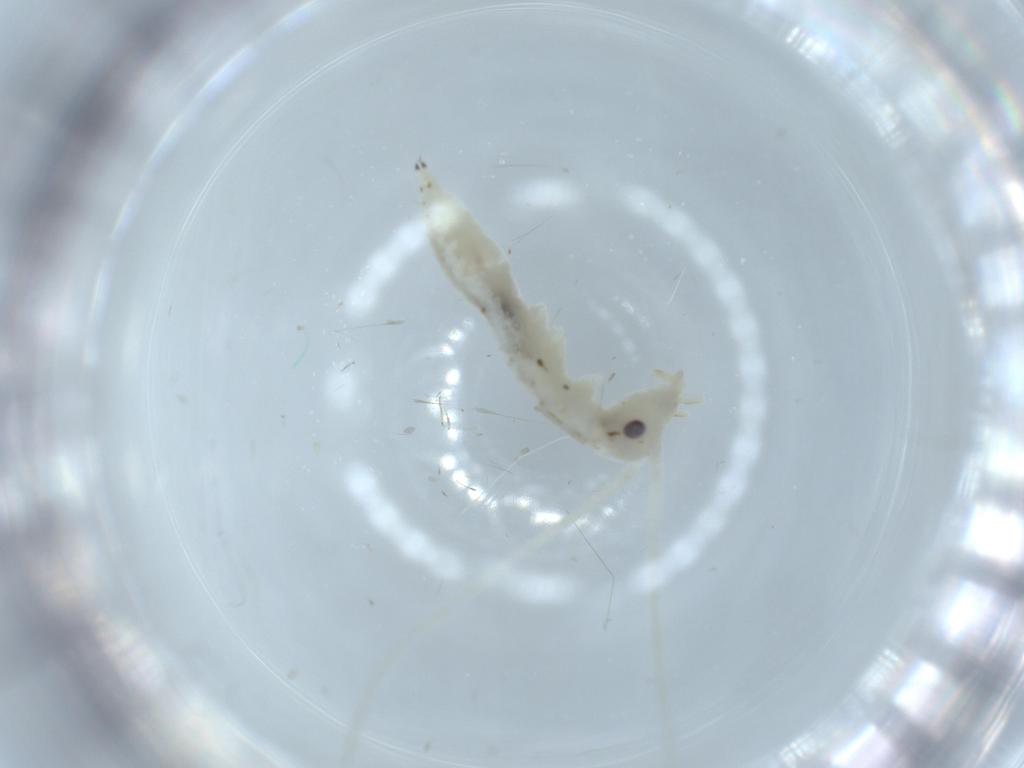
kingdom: Animalia
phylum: Arthropoda
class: Insecta
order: Orthoptera
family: Oecanthidae
